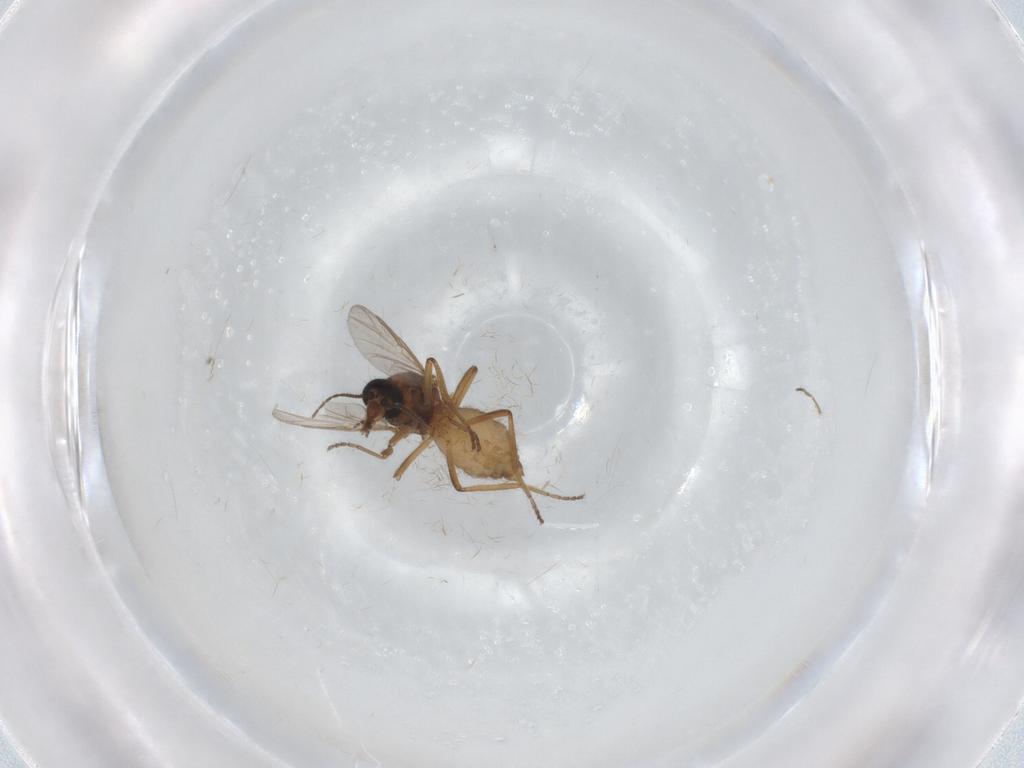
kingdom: Animalia
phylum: Arthropoda
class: Insecta
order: Diptera
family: Ceratopogonidae
